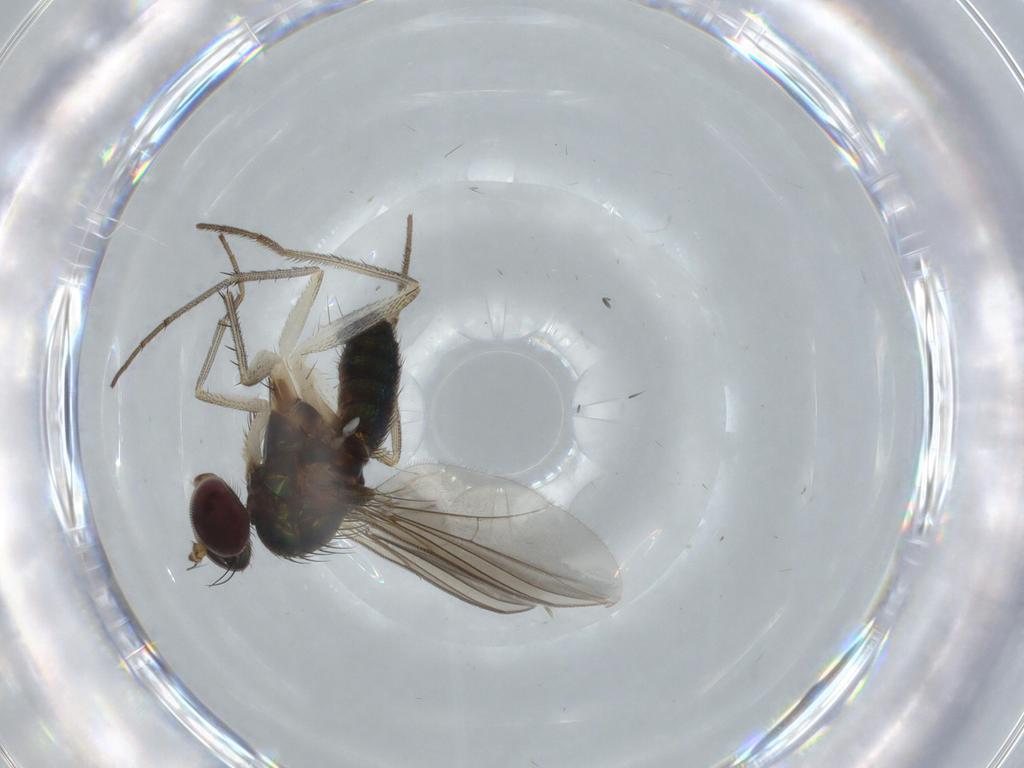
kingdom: Animalia
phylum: Arthropoda
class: Insecta
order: Diptera
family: Dolichopodidae
